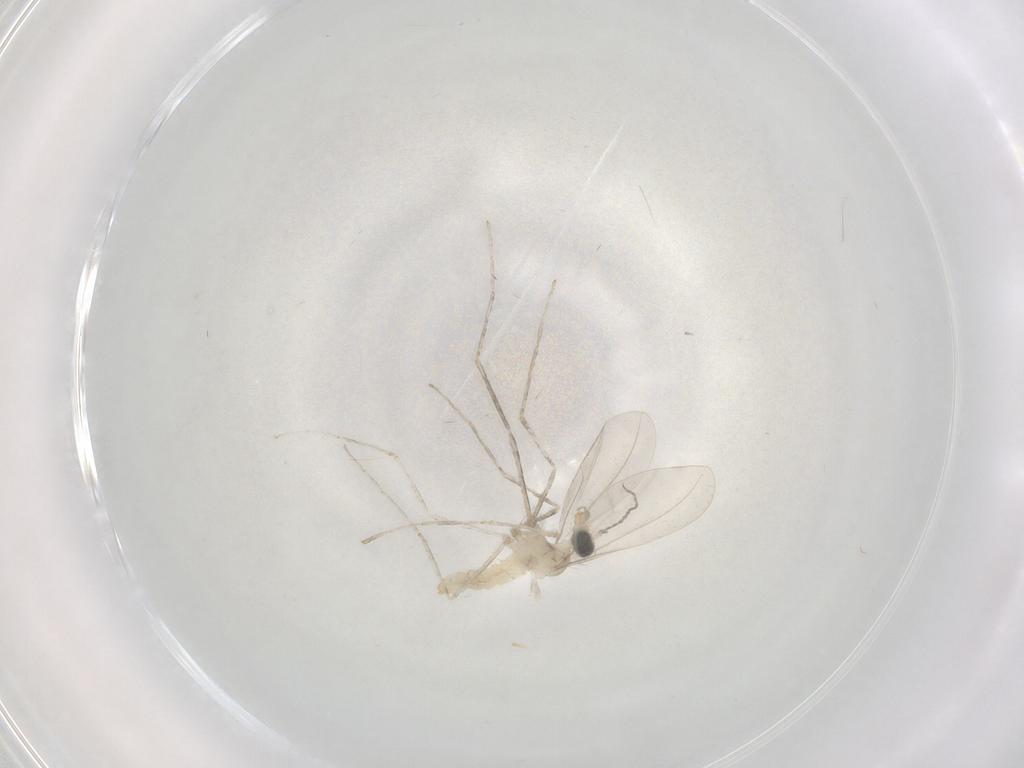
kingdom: Animalia
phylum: Arthropoda
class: Insecta
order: Diptera
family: Cecidomyiidae
